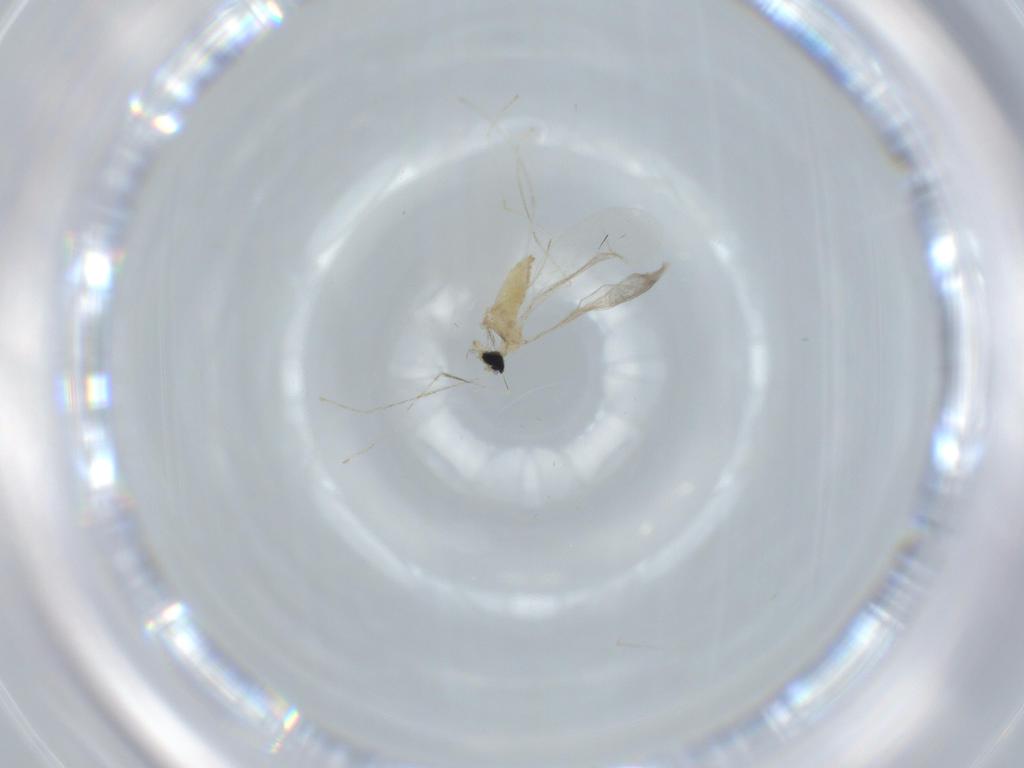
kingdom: Animalia
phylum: Arthropoda
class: Insecta
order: Diptera
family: Cecidomyiidae
